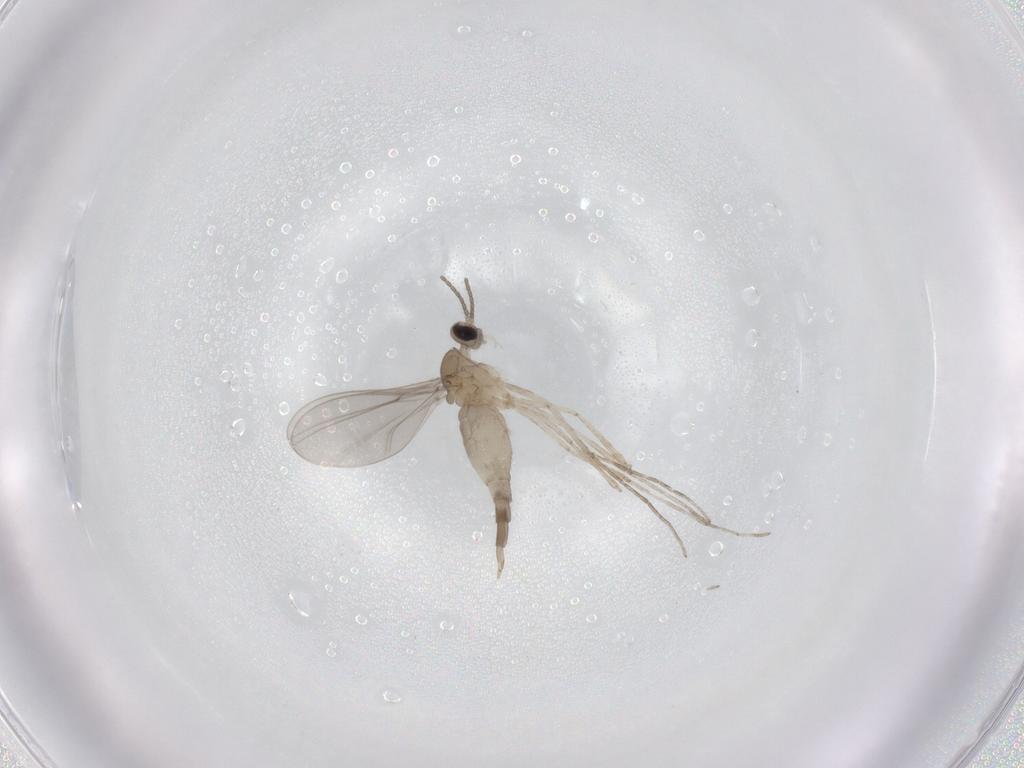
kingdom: Animalia
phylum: Arthropoda
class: Insecta
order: Diptera
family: Cecidomyiidae
